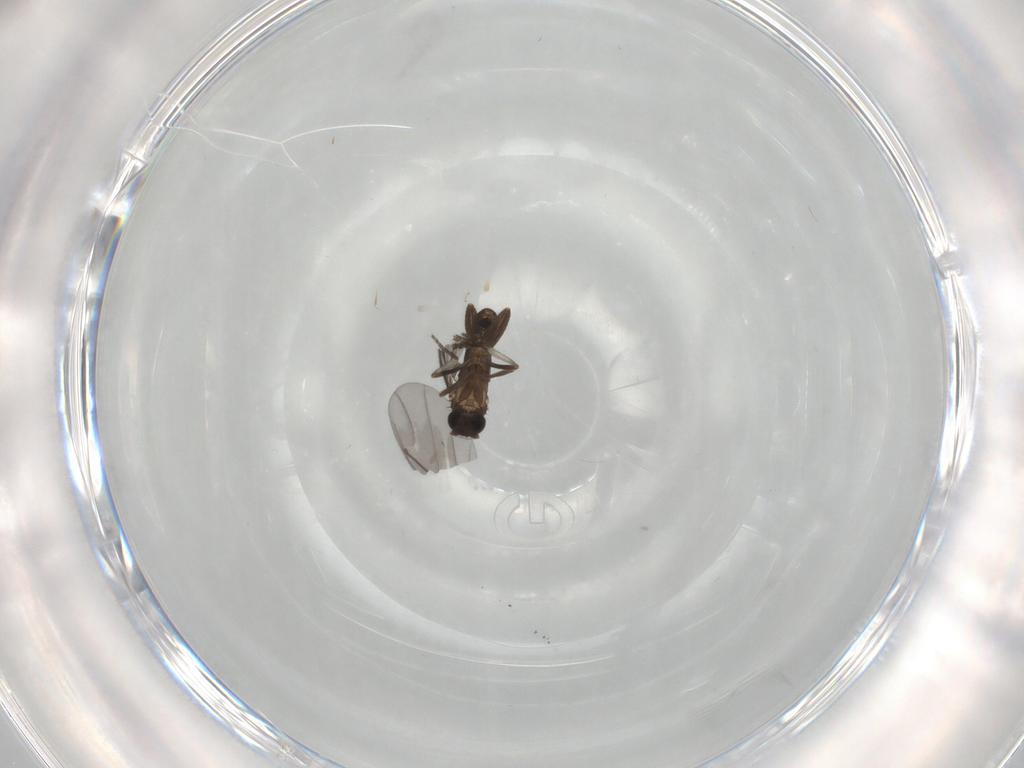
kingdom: Animalia
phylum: Arthropoda
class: Insecta
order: Diptera
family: Phoridae
